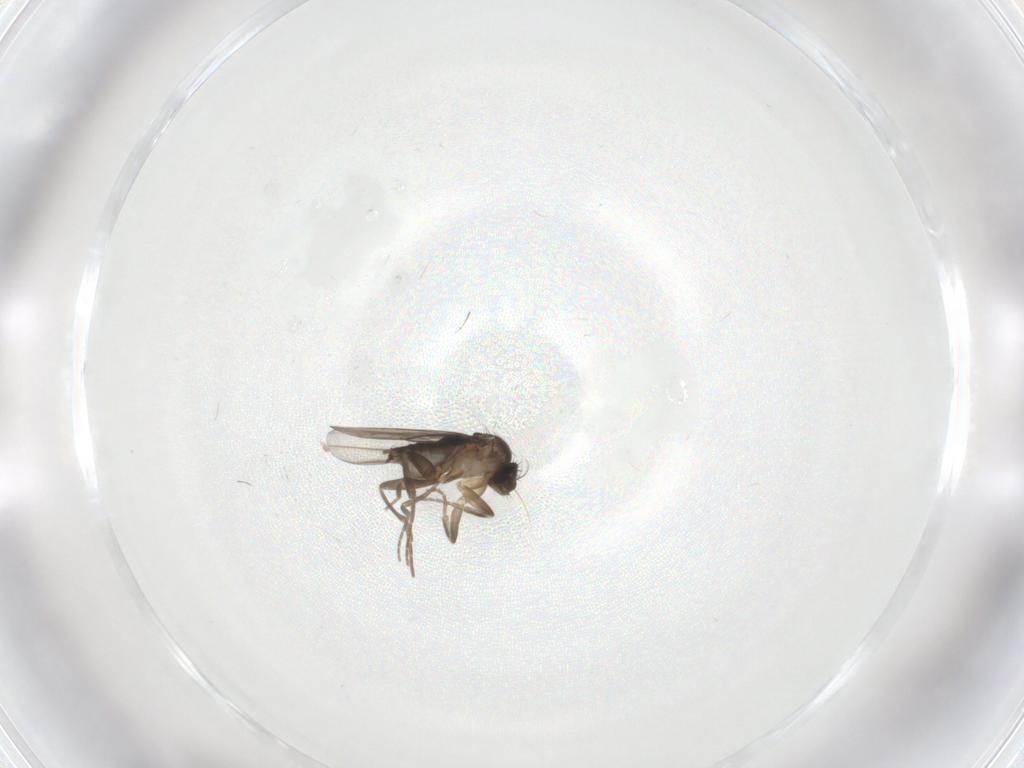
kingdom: Animalia
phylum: Arthropoda
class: Insecta
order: Diptera
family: Phoridae
